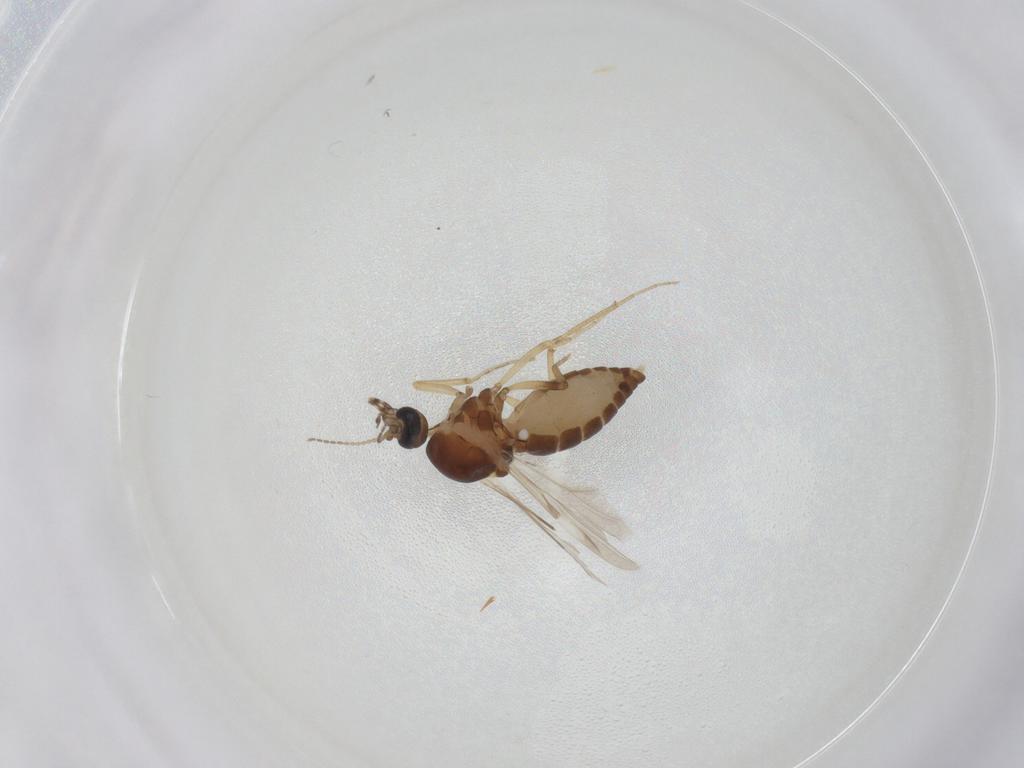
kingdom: Animalia
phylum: Arthropoda
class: Insecta
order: Diptera
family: Ceratopogonidae
